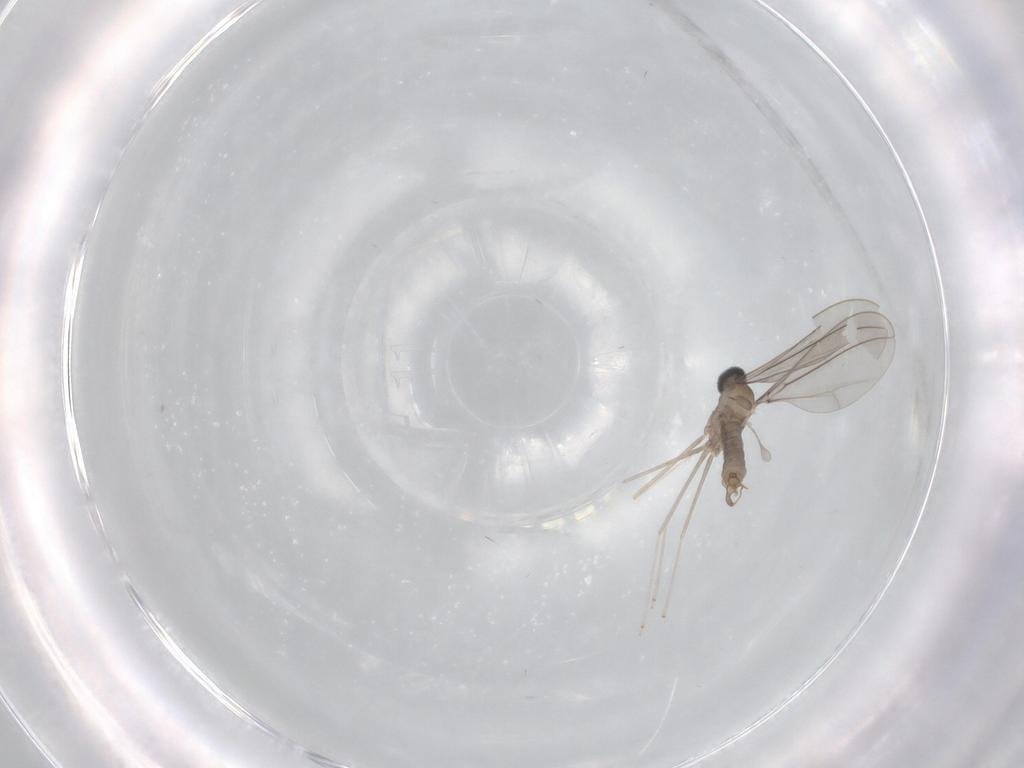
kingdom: Animalia
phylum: Arthropoda
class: Insecta
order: Diptera
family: Cecidomyiidae
